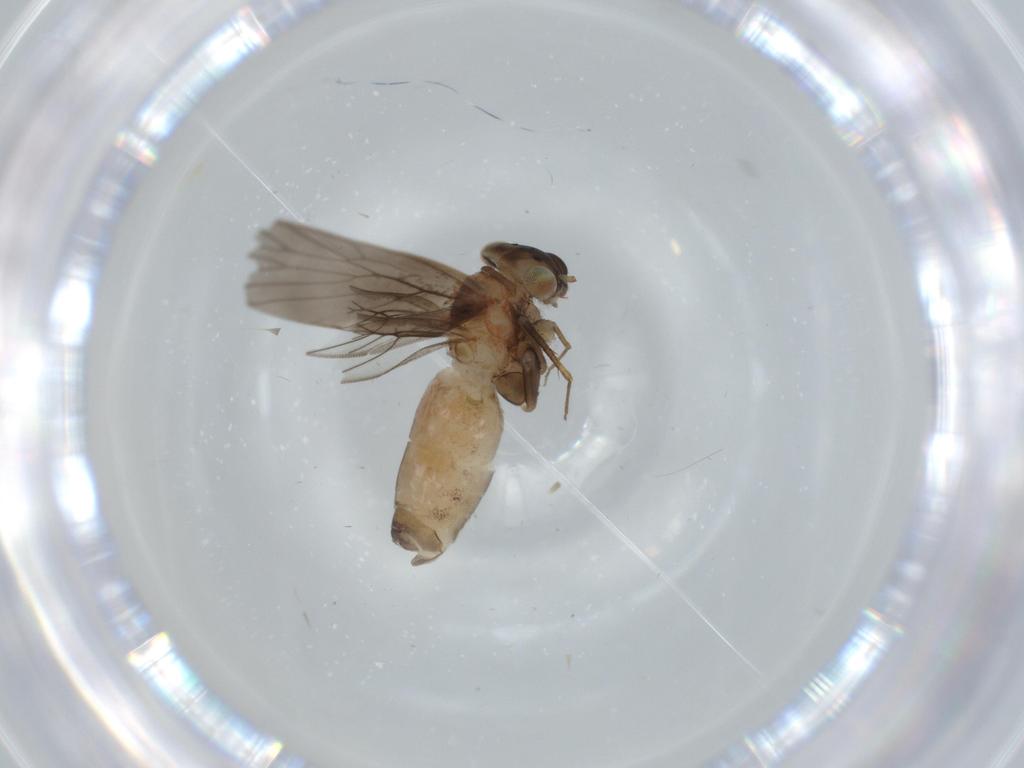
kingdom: Animalia
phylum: Arthropoda
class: Insecta
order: Psocodea
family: Lepidopsocidae
